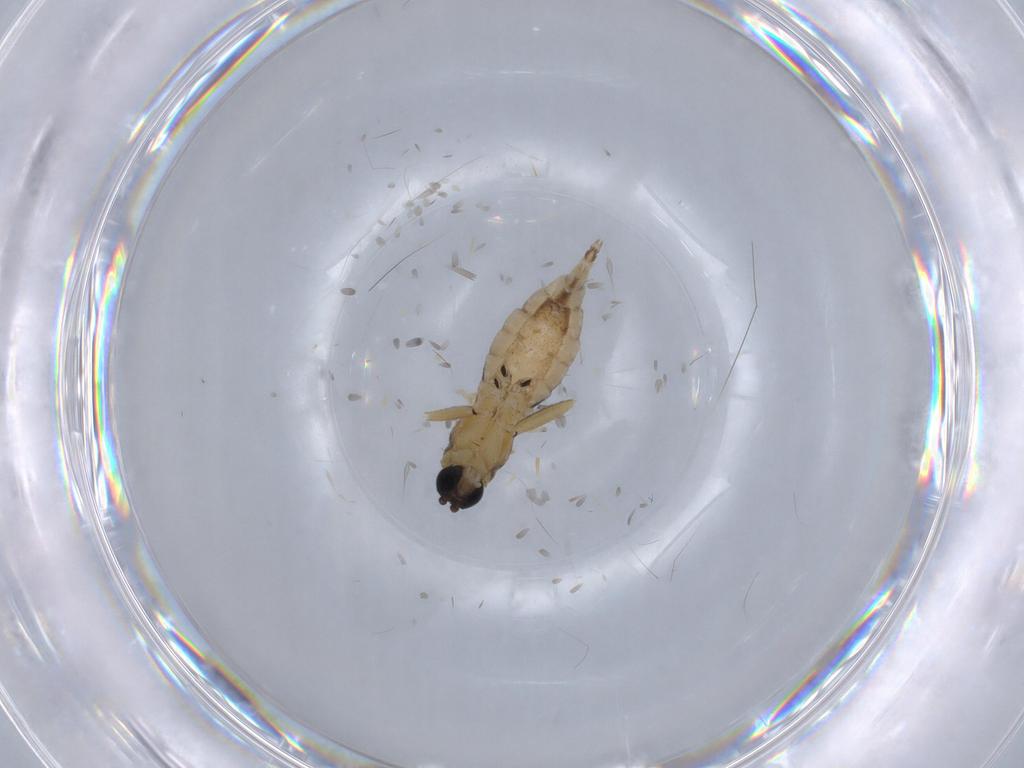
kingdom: Animalia
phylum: Arthropoda
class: Insecta
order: Diptera
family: Sciaridae
